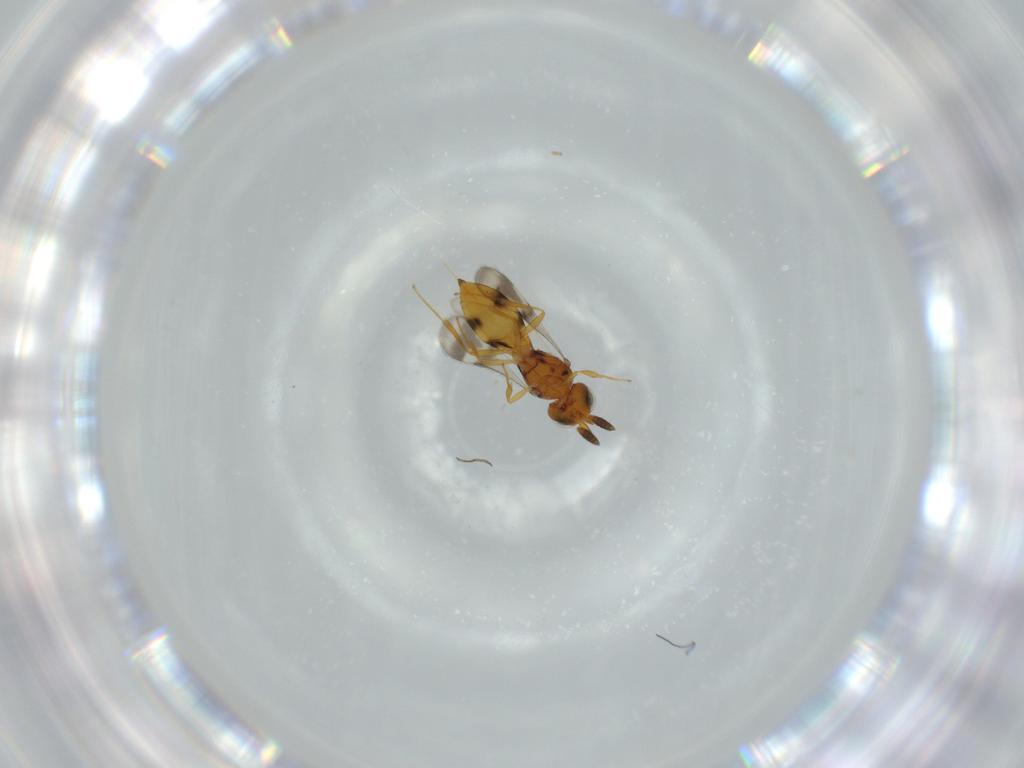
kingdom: Animalia
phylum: Arthropoda
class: Insecta
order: Hymenoptera
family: Scelionidae
